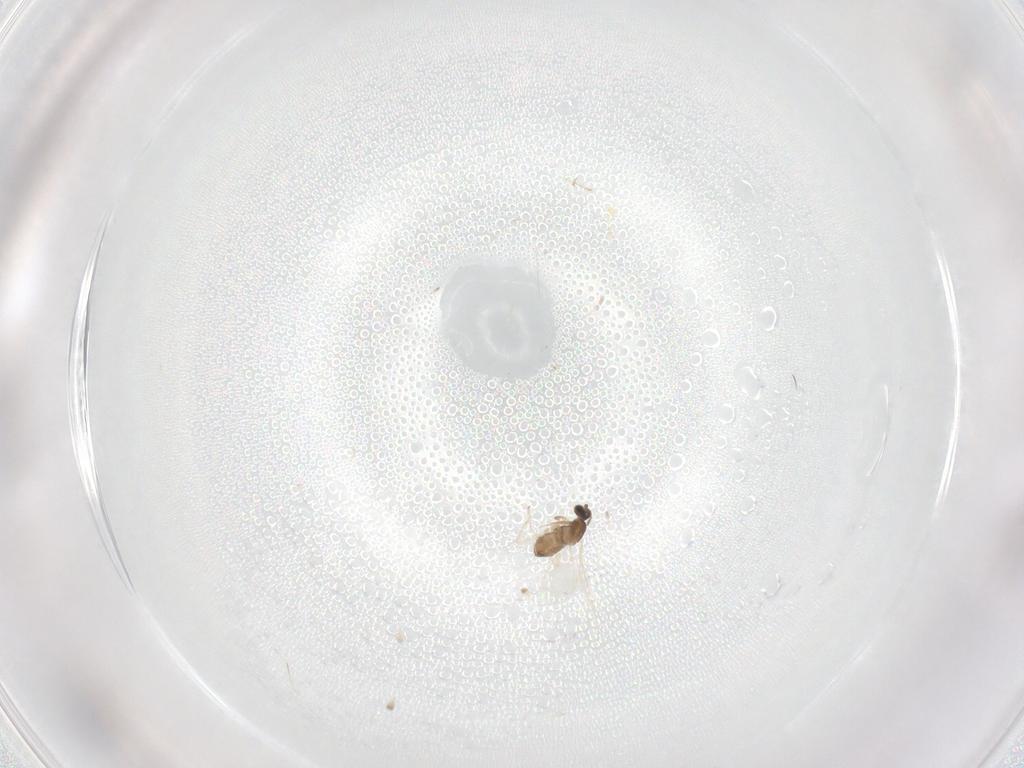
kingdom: Animalia
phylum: Arthropoda
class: Insecta
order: Diptera
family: Cecidomyiidae
